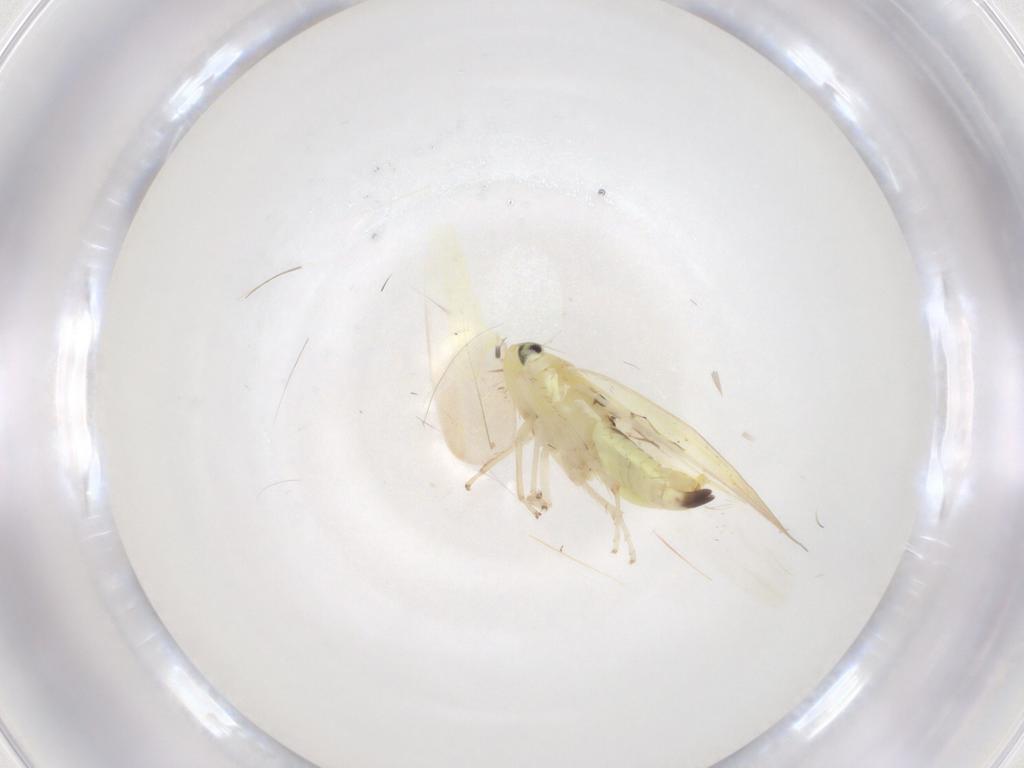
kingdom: Animalia
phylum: Arthropoda
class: Insecta
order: Hemiptera
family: Cicadellidae
